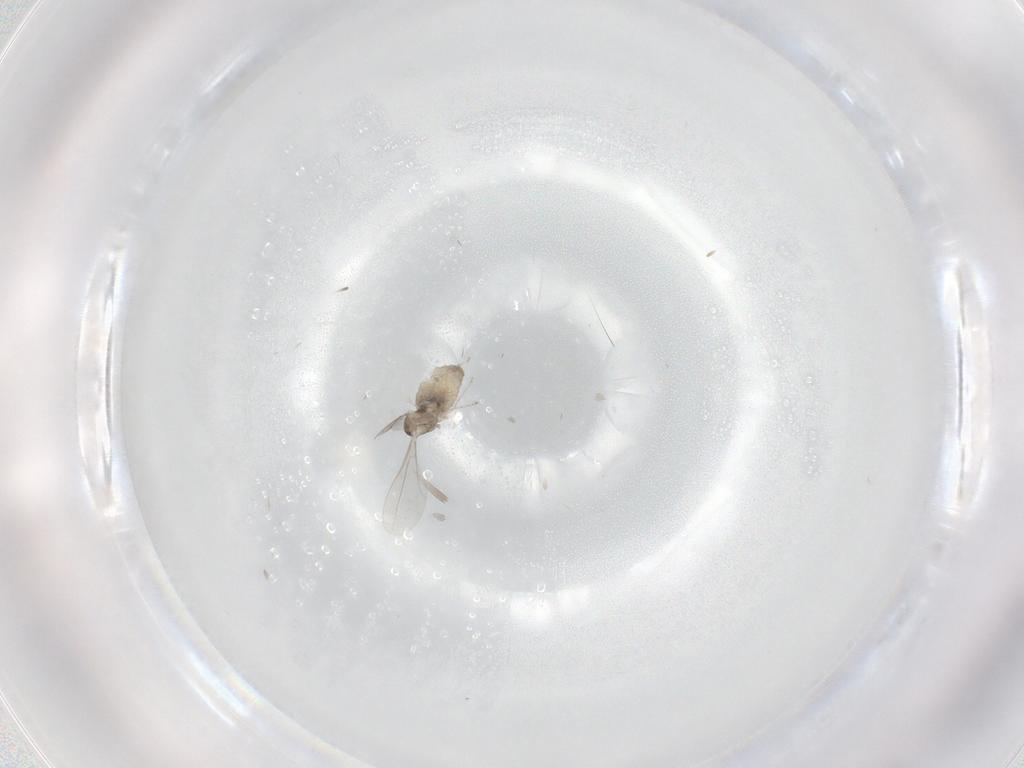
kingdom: Animalia
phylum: Arthropoda
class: Insecta
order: Diptera
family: Cecidomyiidae
